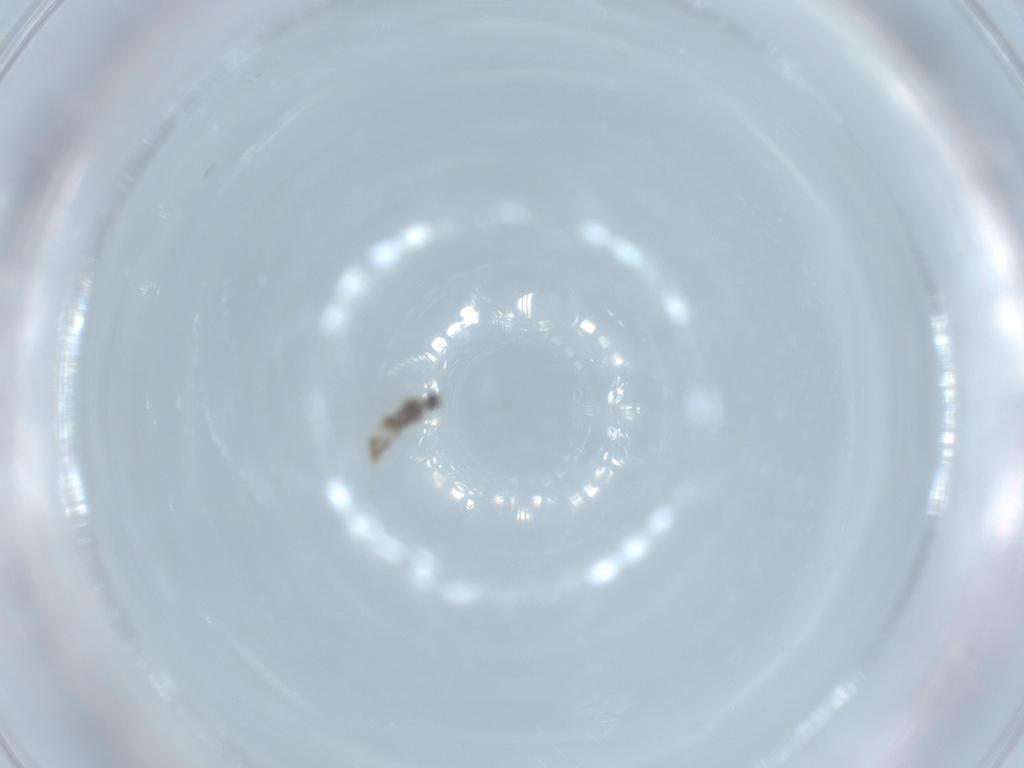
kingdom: Animalia
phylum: Arthropoda
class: Insecta
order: Diptera
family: Cecidomyiidae
